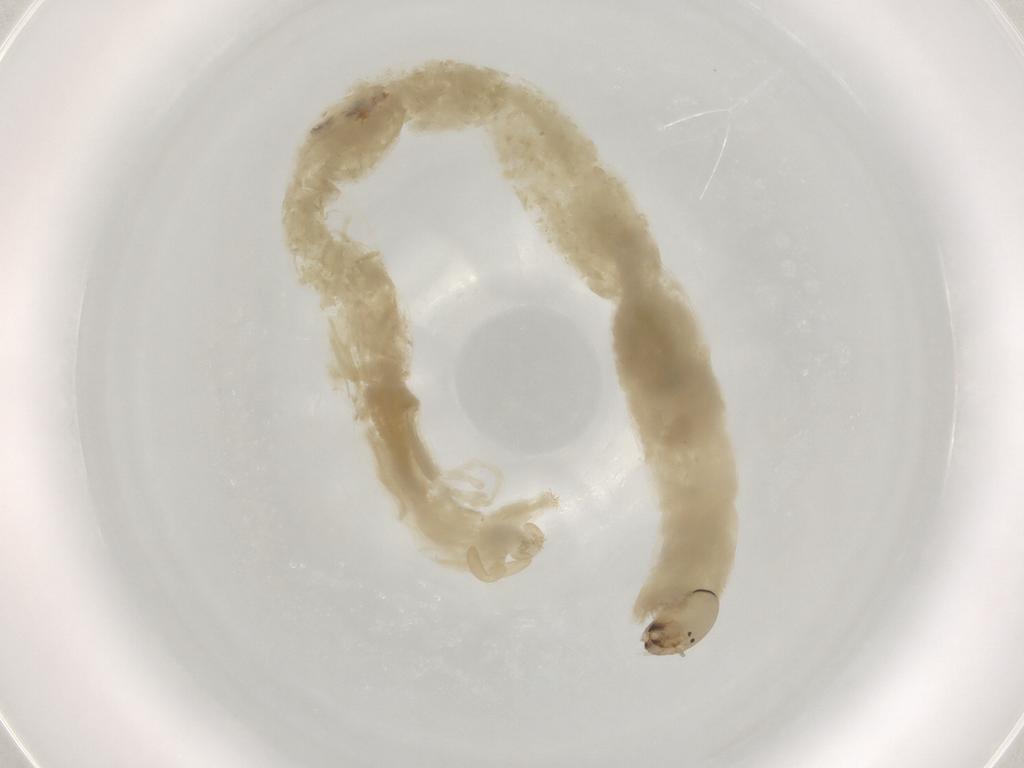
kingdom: Animalia
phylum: Arthropoda
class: Insecta
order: Diptera
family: Chironomidae
